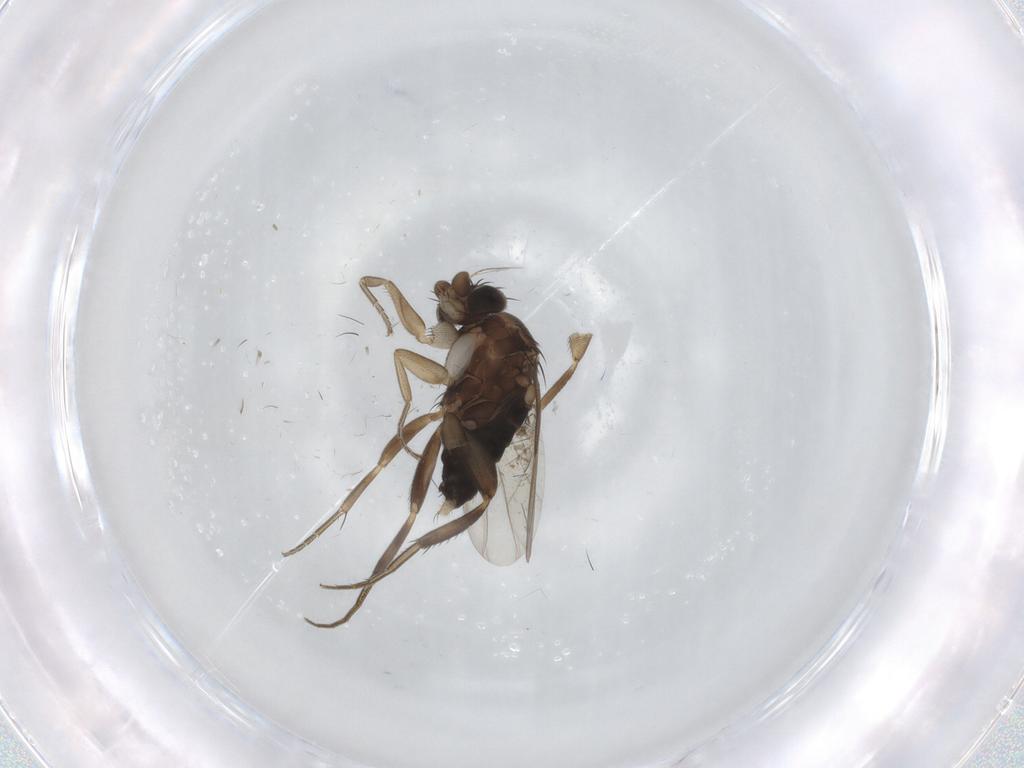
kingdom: Animalia
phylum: Arthropoda
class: Insecta
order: Diptera
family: Phoridae
